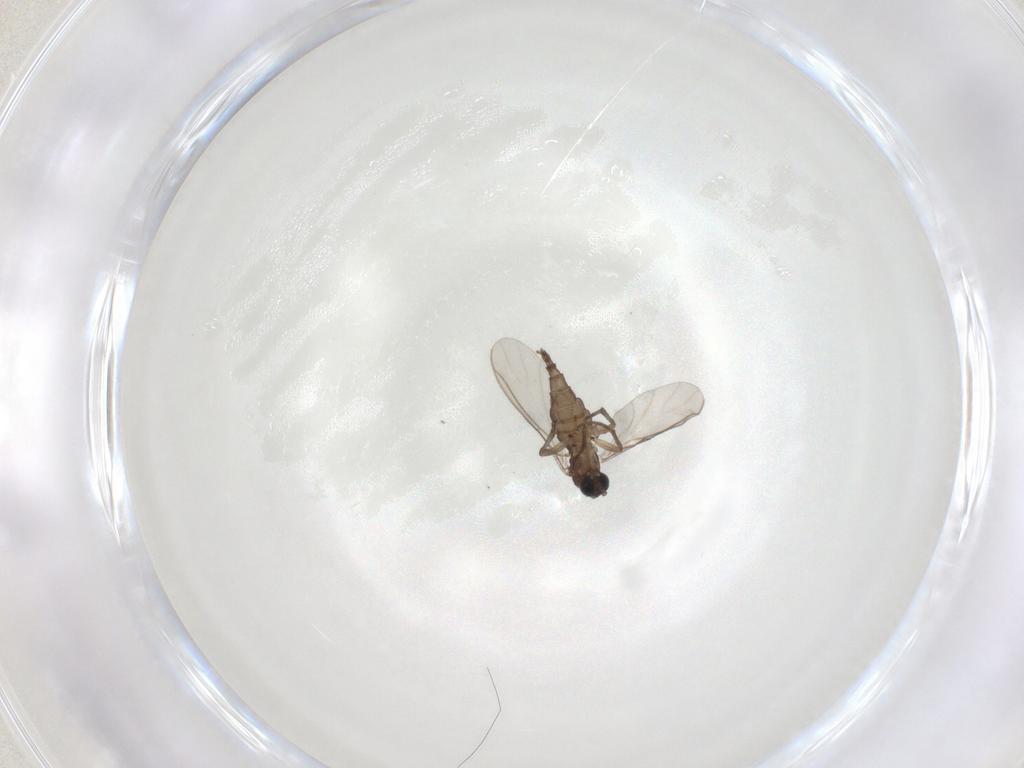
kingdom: Animalia
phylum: Arthropoda
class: Insecta
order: Diptera
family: Sciaridae
